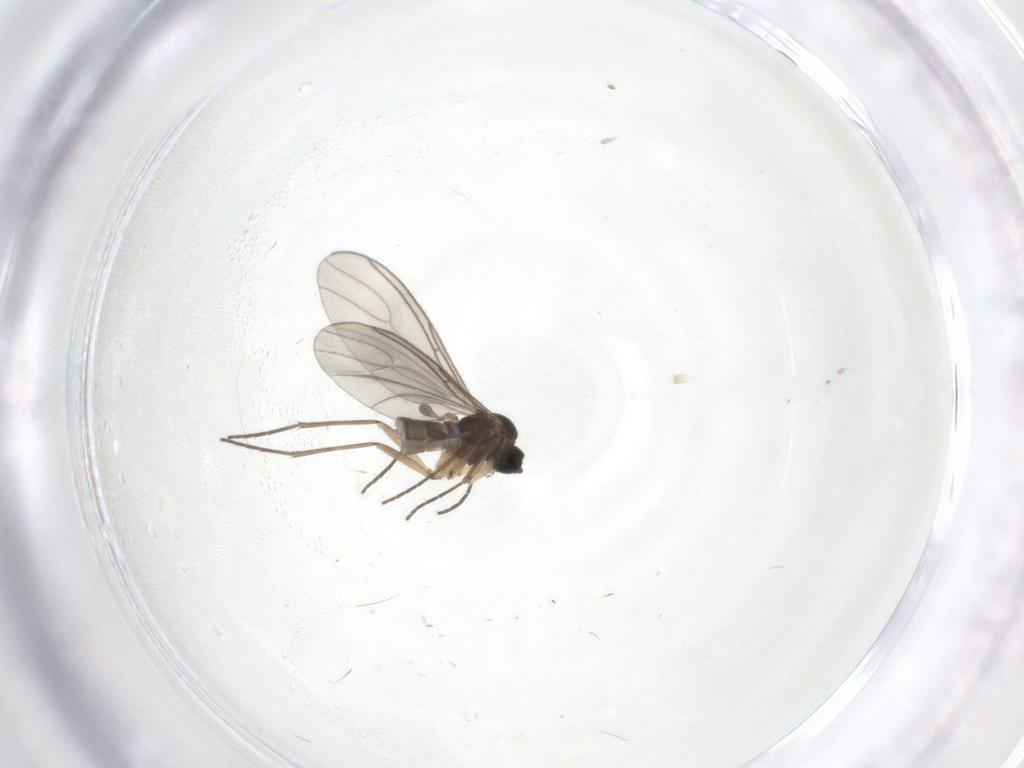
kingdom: Animalia
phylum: Arthropoda
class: Insecta
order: Diptera
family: Sciaridae
